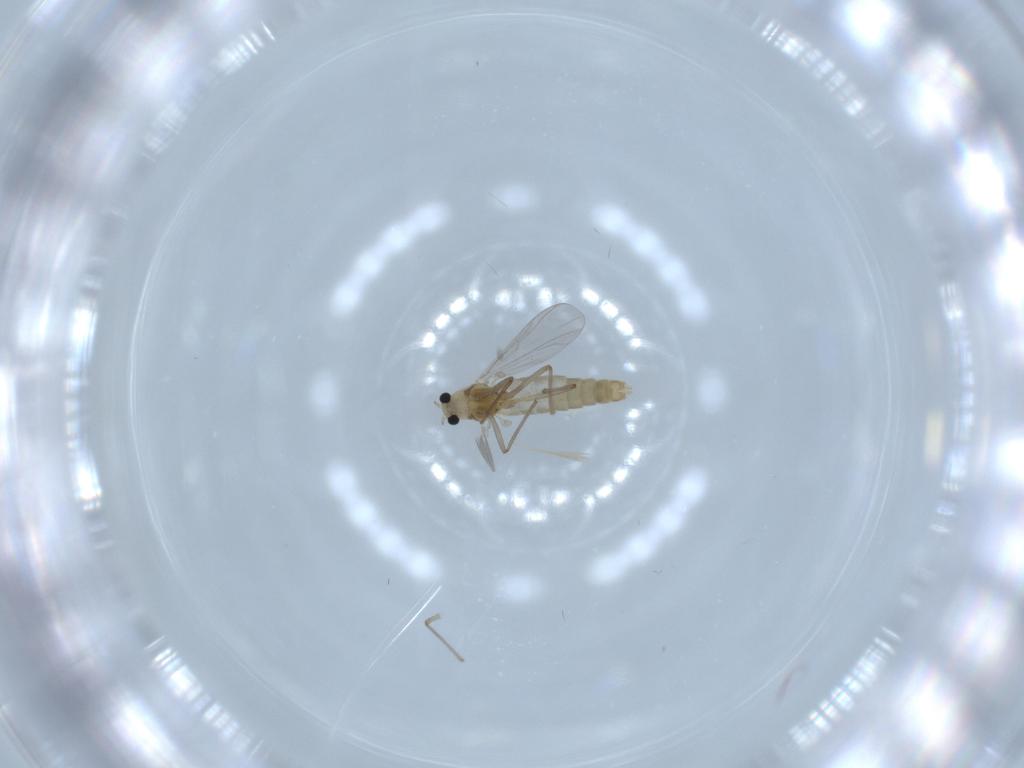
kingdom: Animalia
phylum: Arthropoda
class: Insecta
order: Diptera
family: Chironomidae
